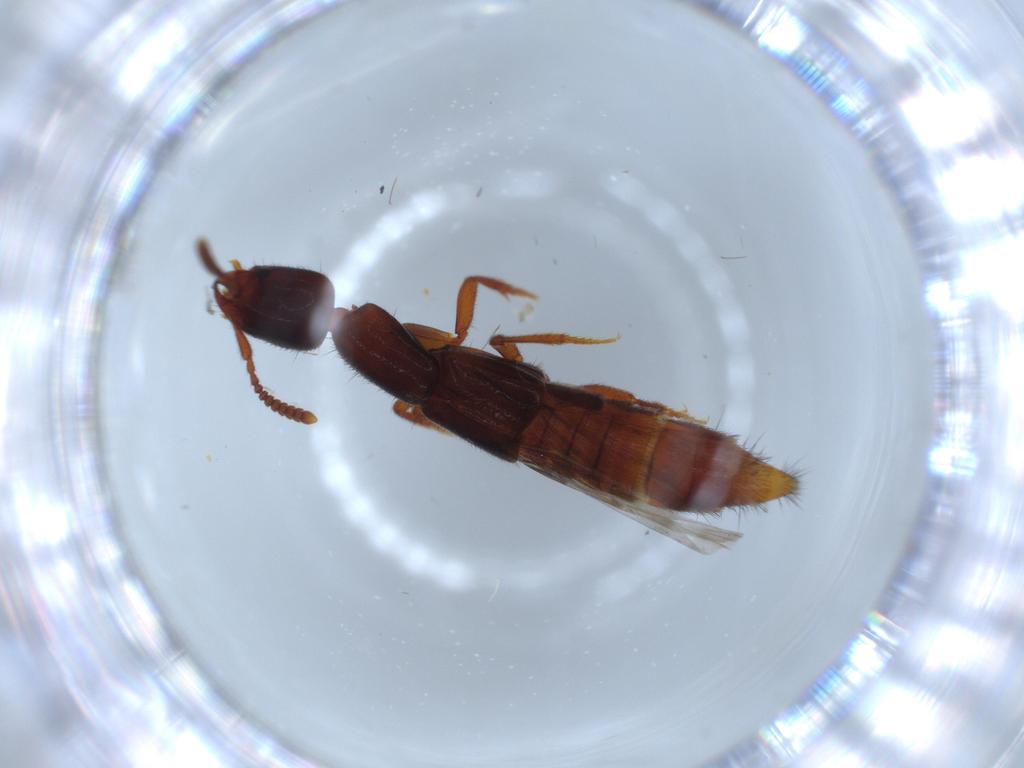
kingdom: Animalia
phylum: Arthropoda
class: Insecta
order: Coleoptera
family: Staphylinidae
